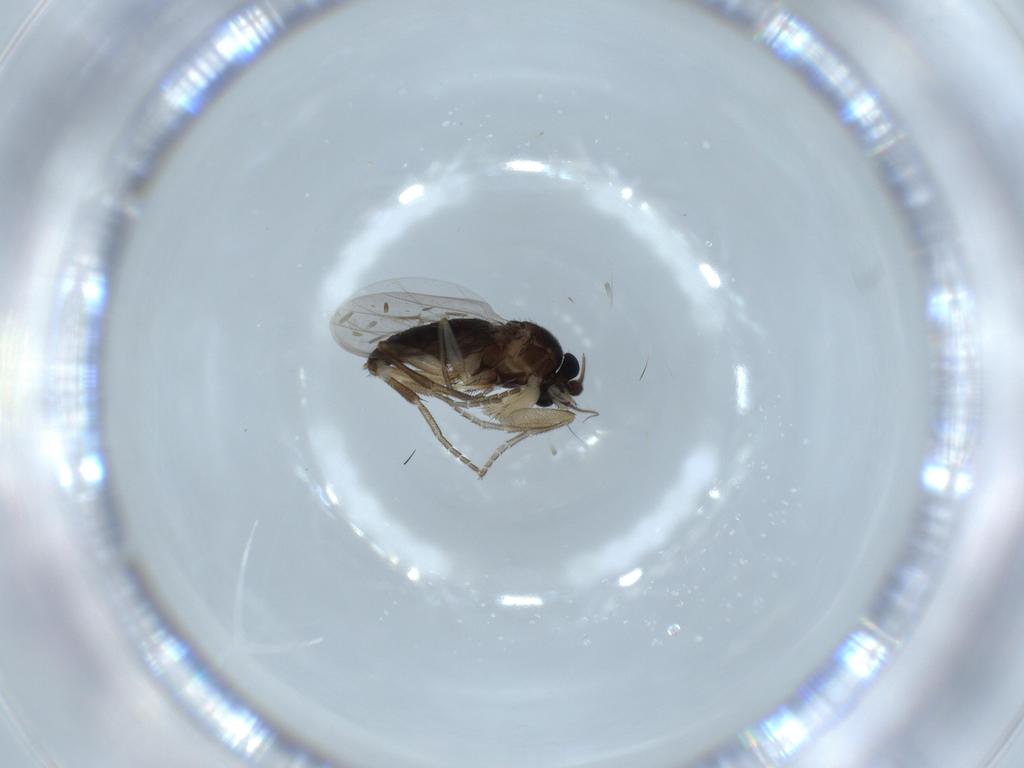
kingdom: Animalia
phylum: Arthropoda
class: Insecta
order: Diptera
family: Phoridae
